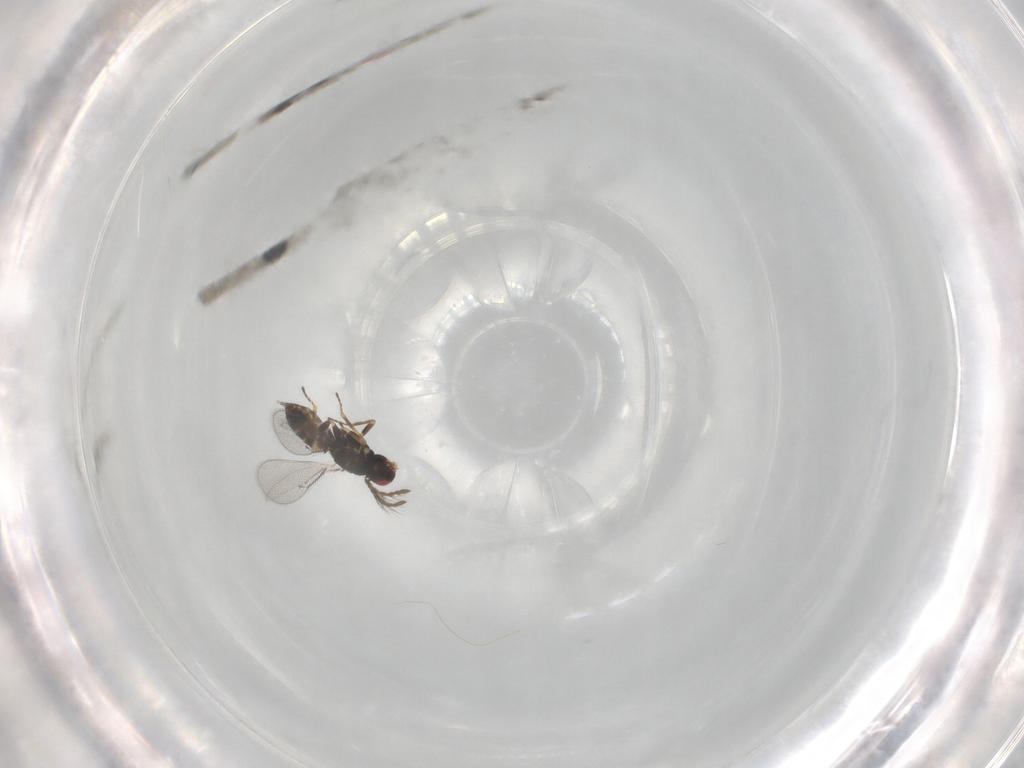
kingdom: Animalia
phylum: Arthropoda
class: Insecta
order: Hymenoptera
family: Eulophidae
